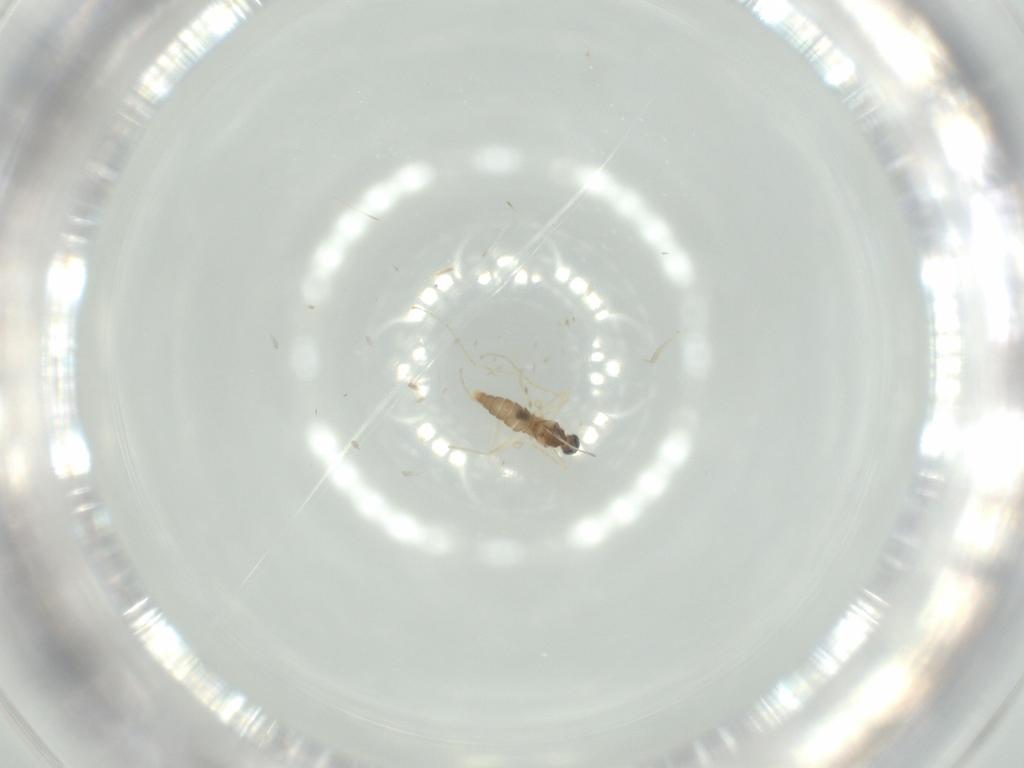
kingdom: Animalia
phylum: Arthropoda
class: Insecta
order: Diptera
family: Cecidomyiidae
